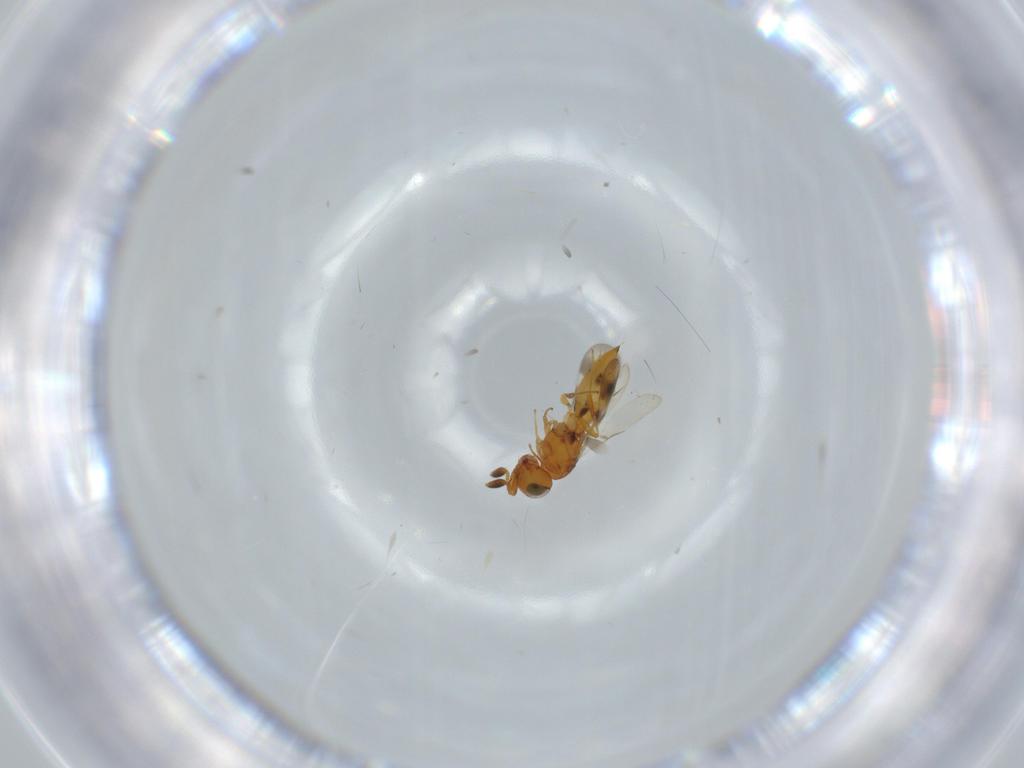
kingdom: Animalia
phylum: Arthropoda
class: Insecta
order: Hymenoptera
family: Scelionidae
